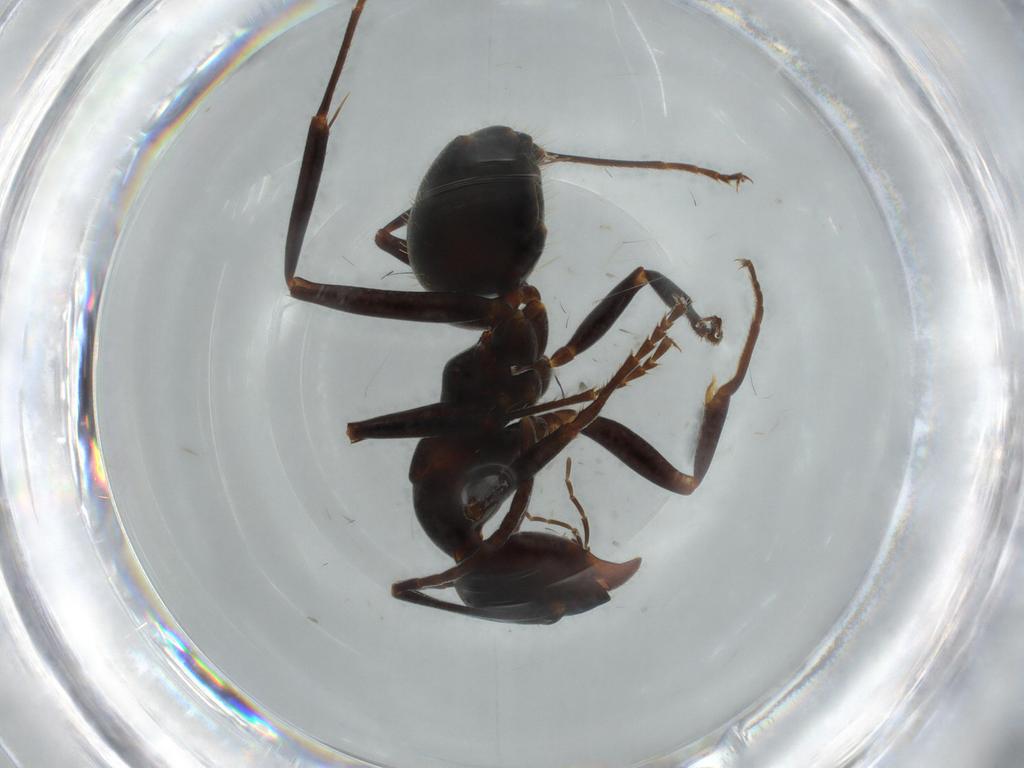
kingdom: Animalia
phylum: Arthropoda
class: Insecta
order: Hymenoptera
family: Formicidae
